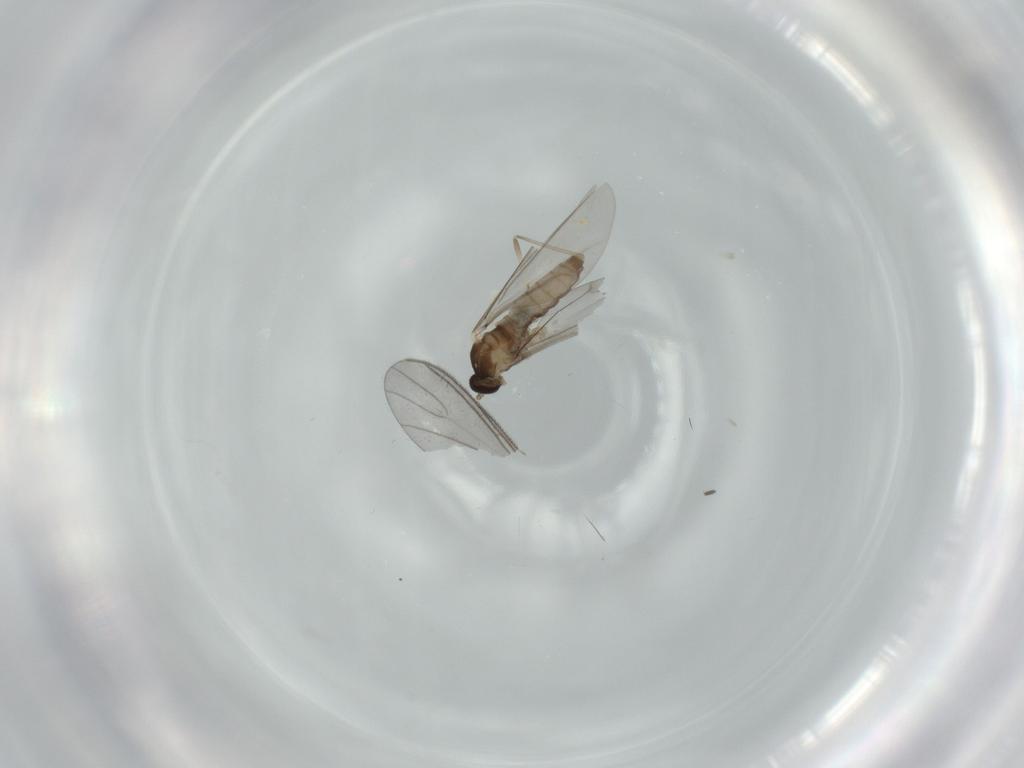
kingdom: Animalia
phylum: Arthropoda
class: Insecta
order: Diptera
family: Cecidomyiidae
